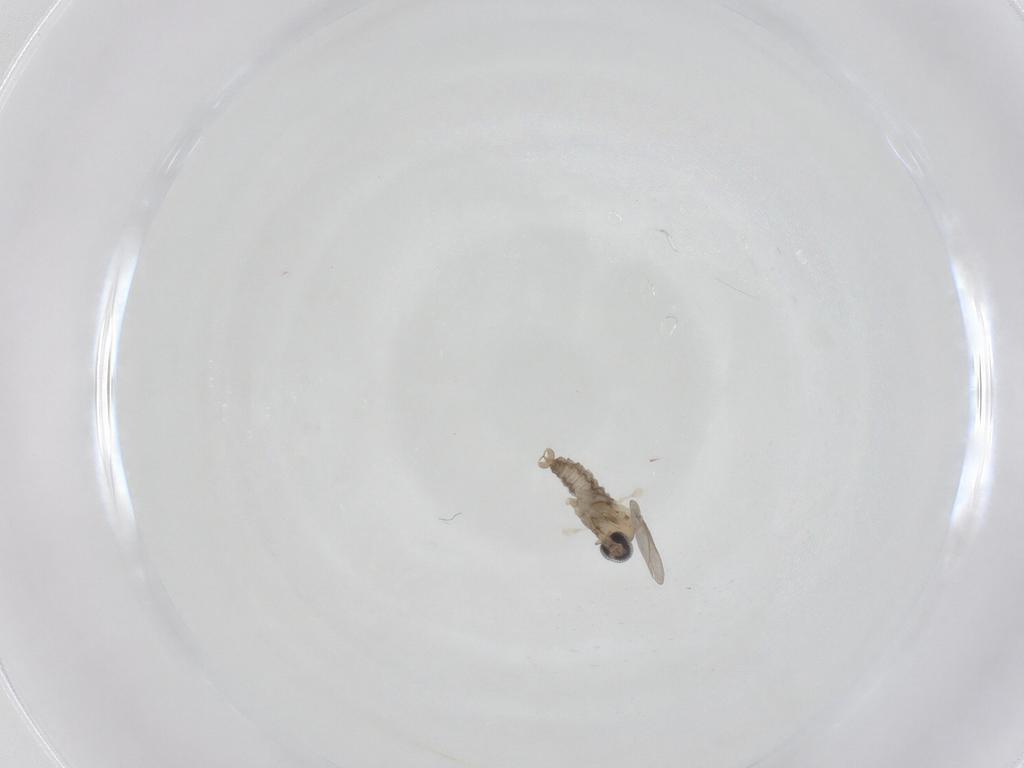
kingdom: Animalia
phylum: Arthropoda
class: Insecta
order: Diptera
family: Cecidomyiidae
